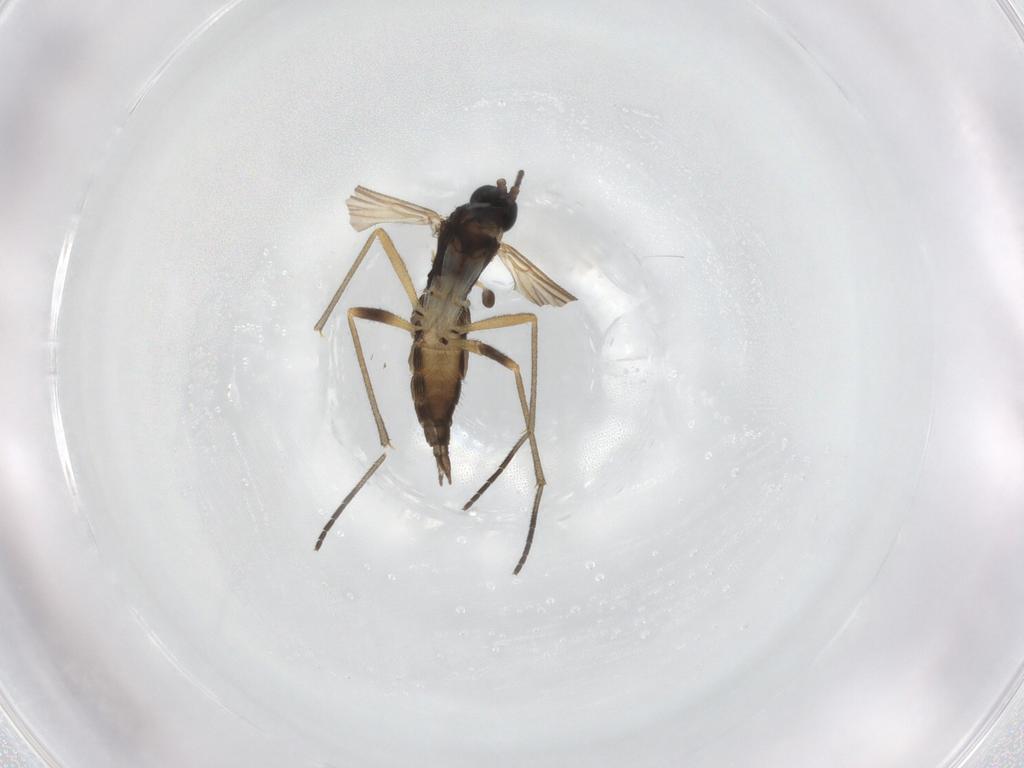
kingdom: Animalia
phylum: Arthropoda
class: Insecta
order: Diptera
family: Sciaridae
